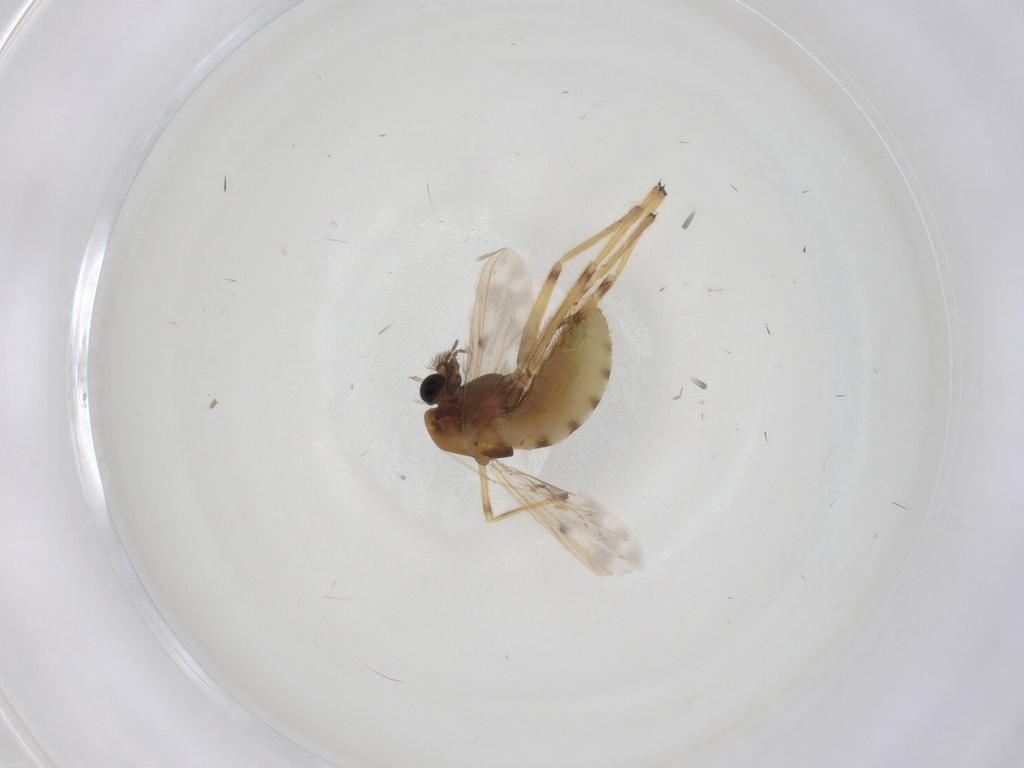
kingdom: Animalia
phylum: Arthropoda
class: Insecta
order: Diptera
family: Chironomidae
